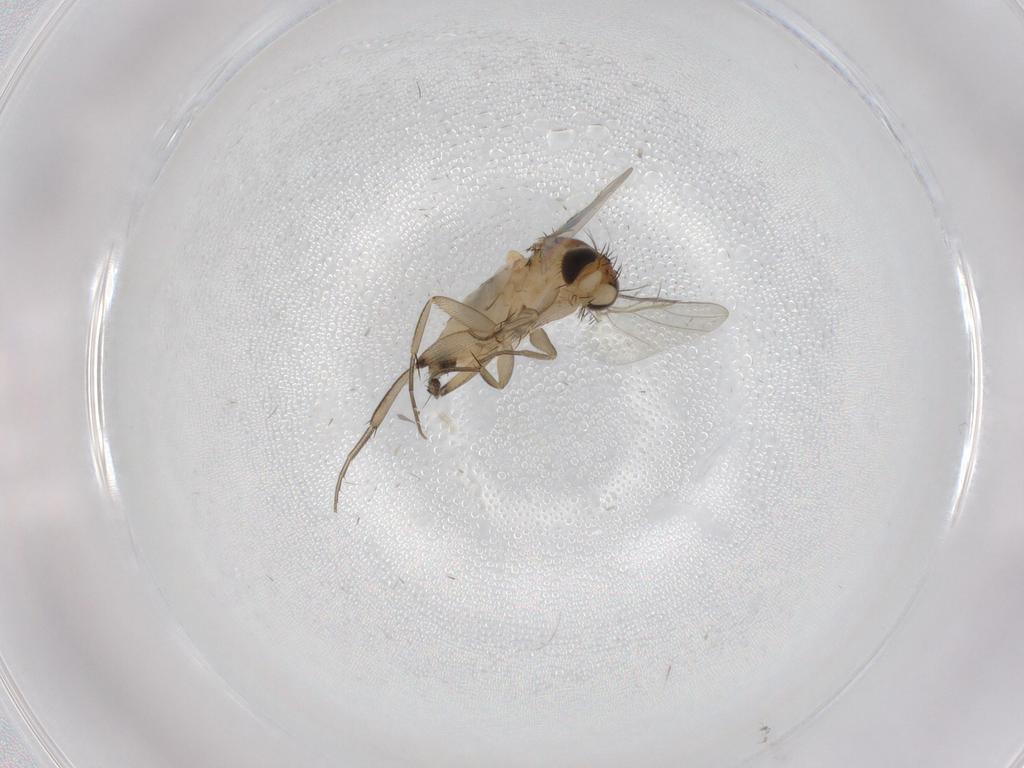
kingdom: Animalia
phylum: Arthropoda
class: Insecta
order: Diptera
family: Phoridae
